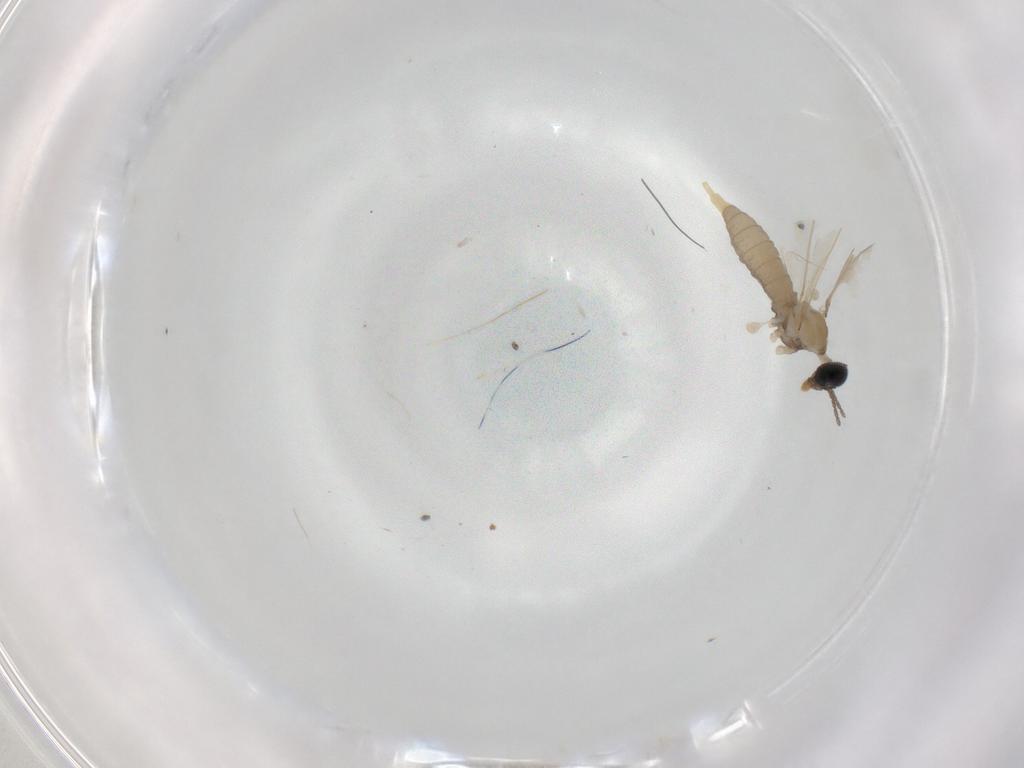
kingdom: Animalia
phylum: Arthropoda
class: Insecta
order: Diptera
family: Cecidomyiidae
